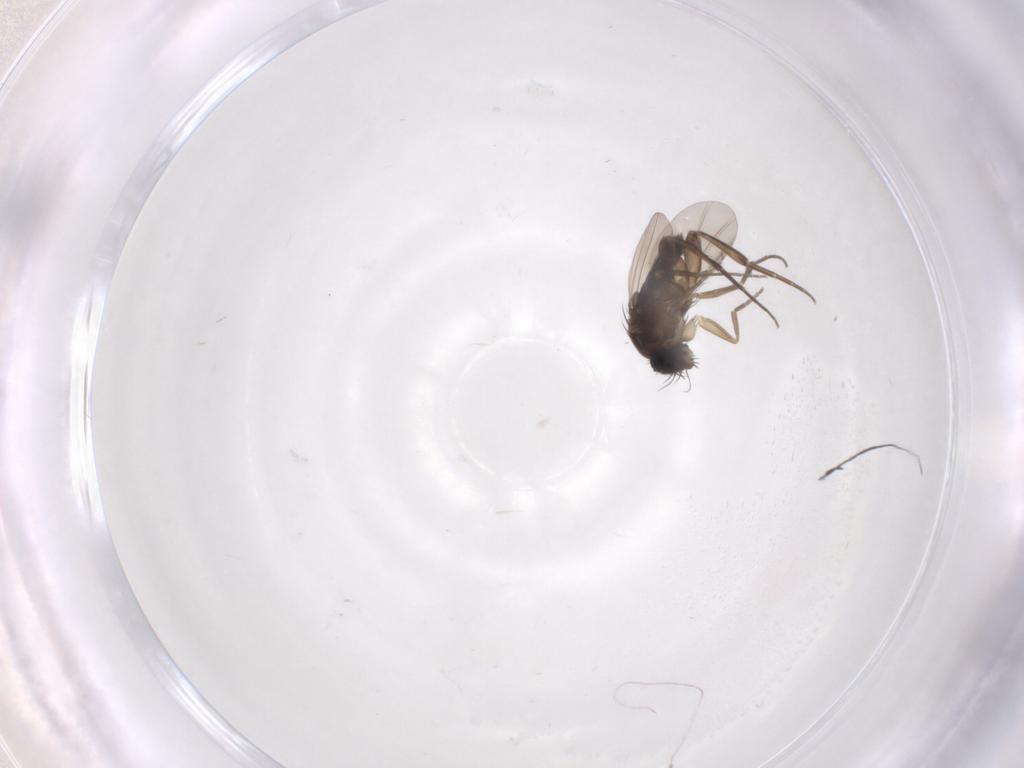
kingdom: Animalia
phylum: Arthropoda
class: Insecta
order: Diptera
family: Phoridae
